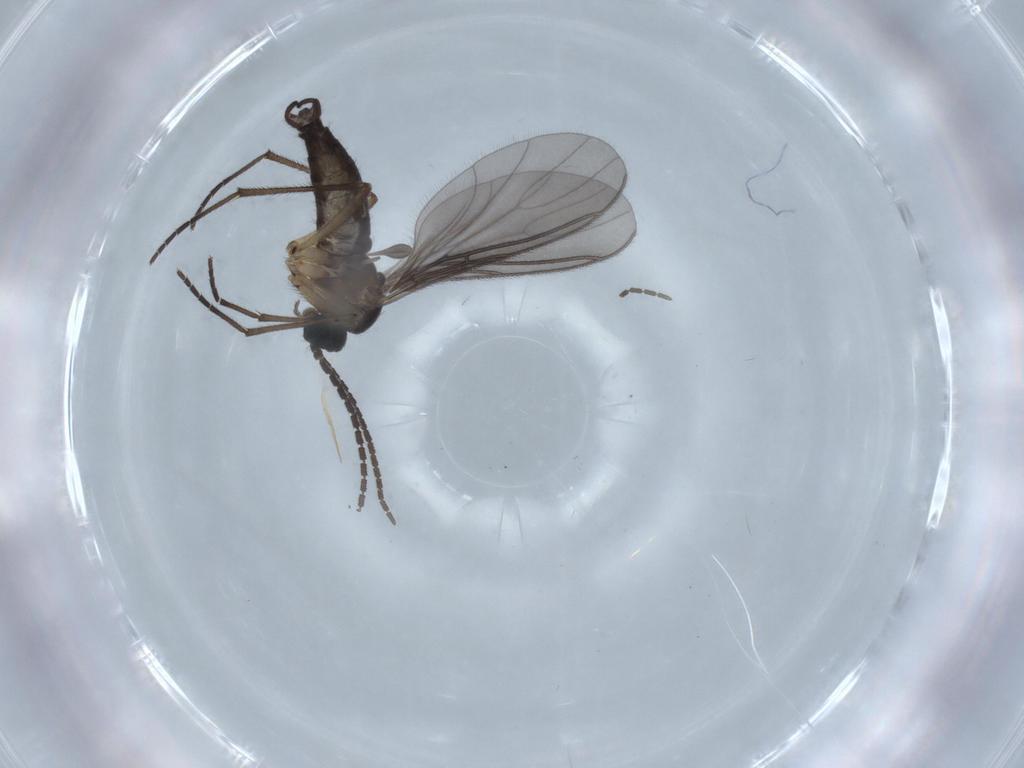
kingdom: Animalia
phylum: Arthropoda
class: Insecta
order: Diptera
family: Sciaridae
